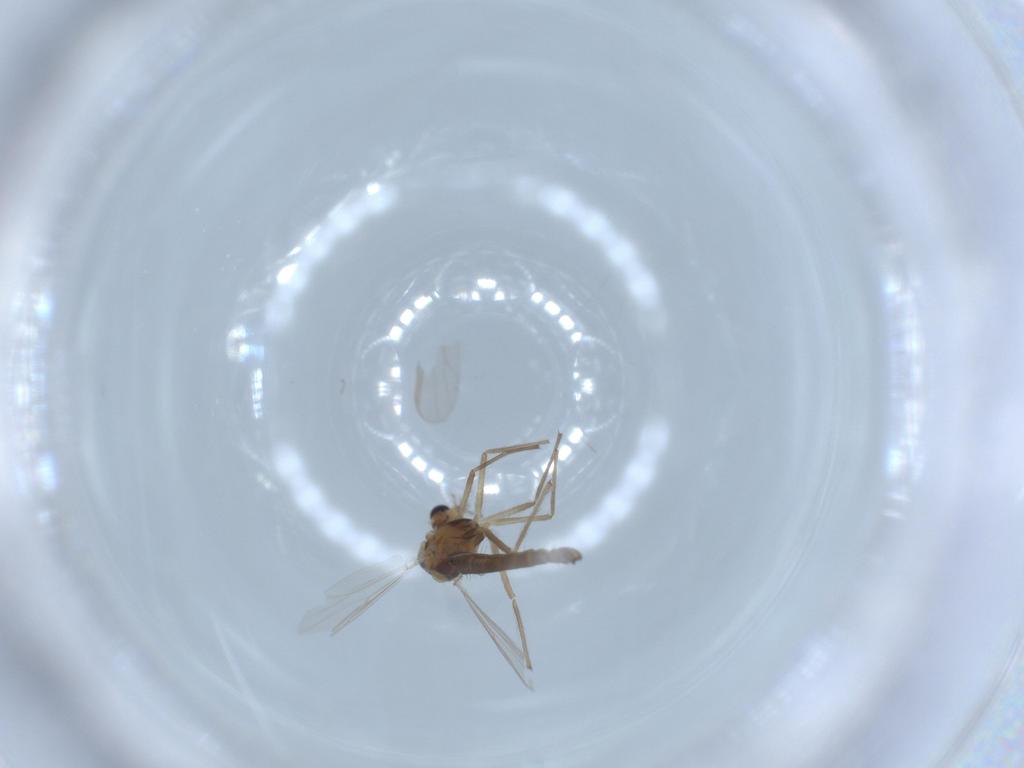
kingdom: Animalia
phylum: Arthropoda
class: Insecta
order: Diptera
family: Chironomidae
